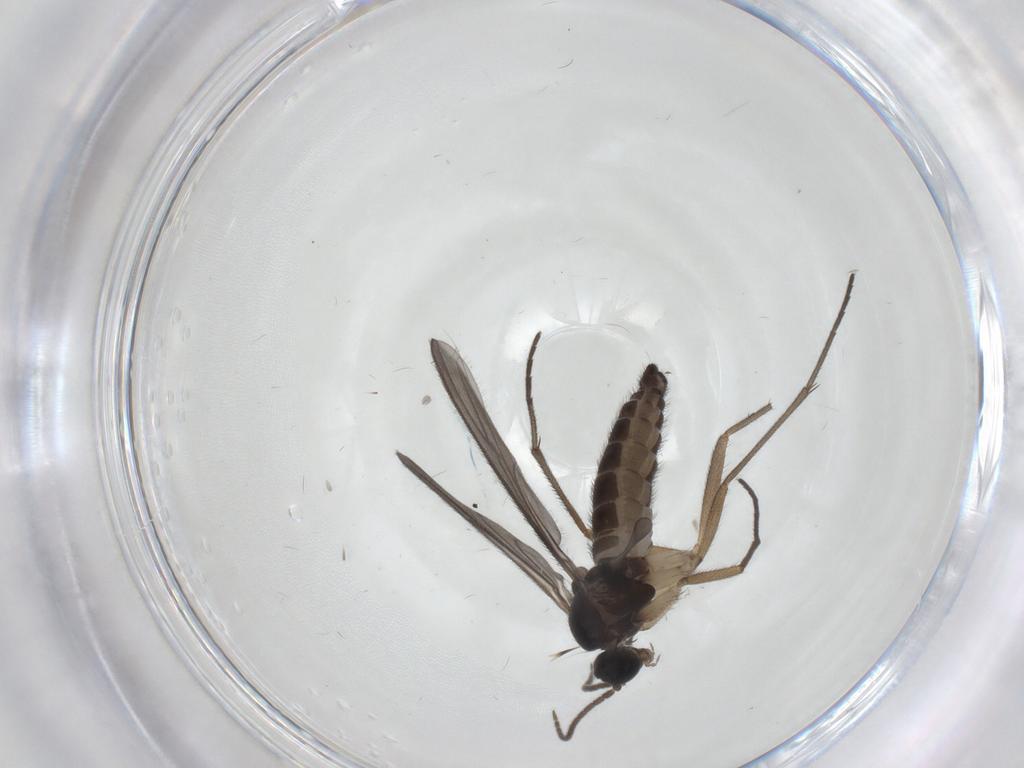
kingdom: Animalia
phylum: Arthropoda
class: Insecta
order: Diptera
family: Sciaridae
